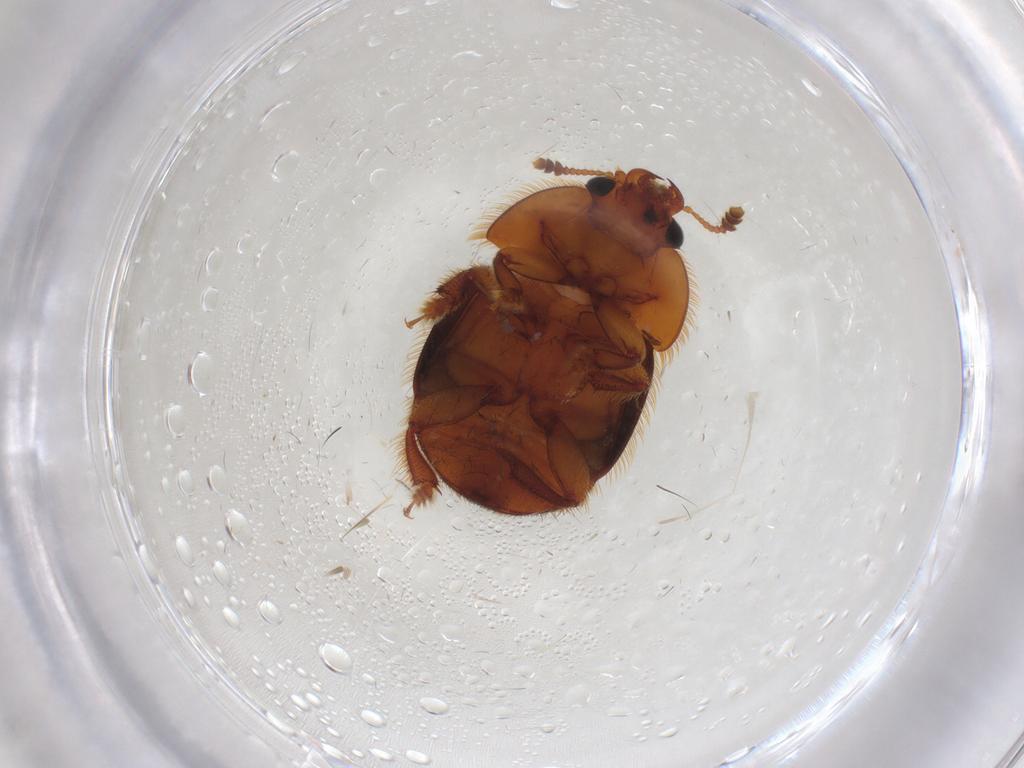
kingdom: Animalia
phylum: Arthropoda
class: Insecta
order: Coleoptera
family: Nitidulidae
